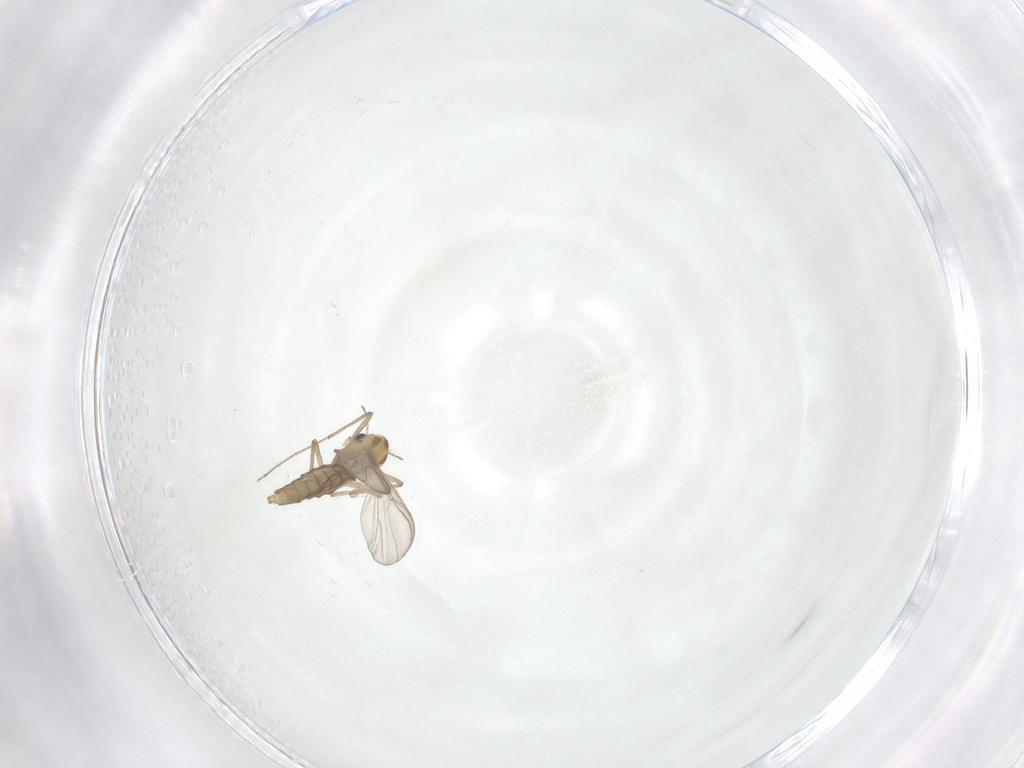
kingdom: Animalia
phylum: Arthropoda
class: Insecta
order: Diptera
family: Chironomidae
